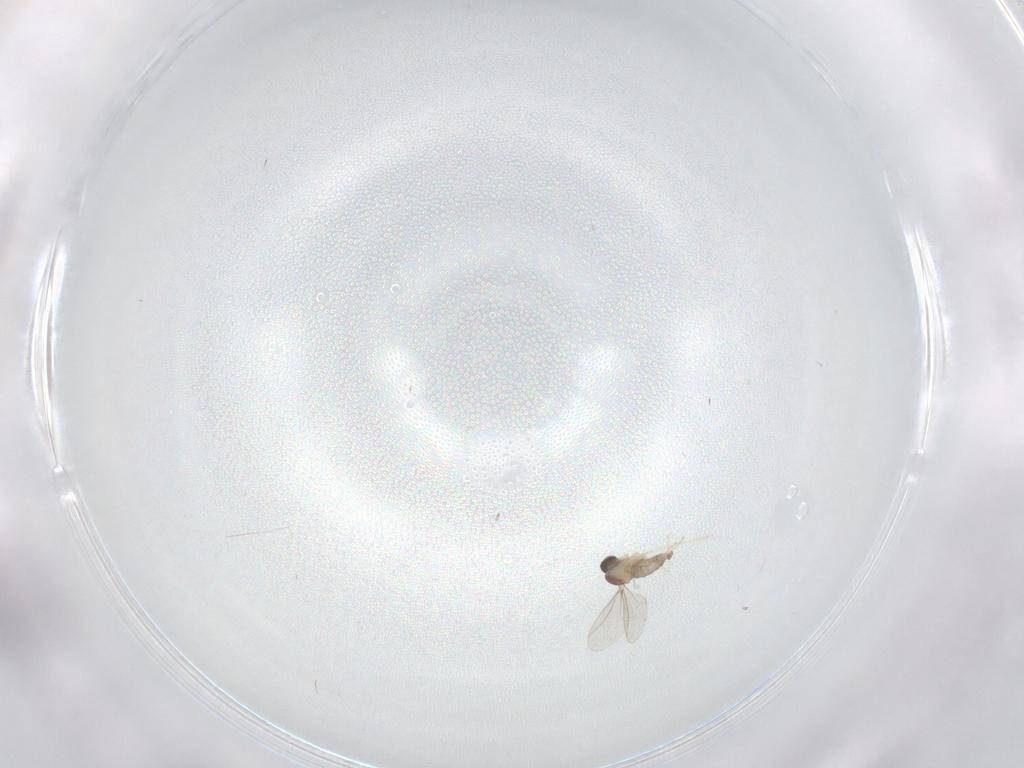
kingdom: Animalia
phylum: Arthropoda
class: Insecta
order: Diptera
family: Cecidomyiidae
